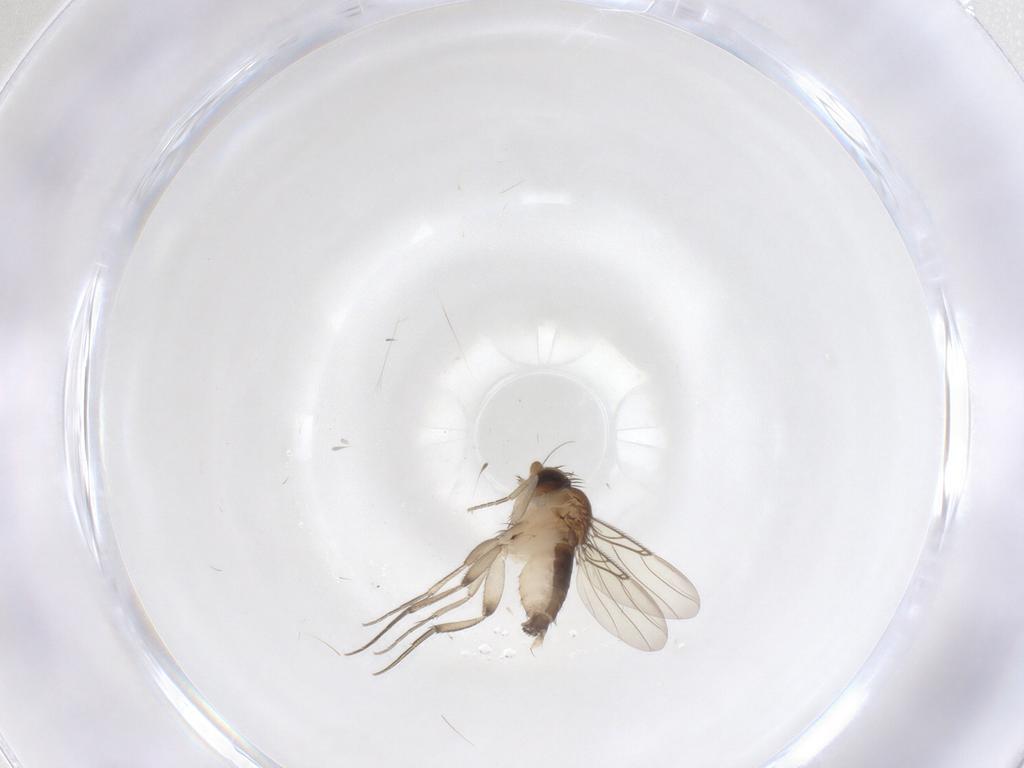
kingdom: Animalia
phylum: Arthropoda
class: Insecta
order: Diptera
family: Phoridae
